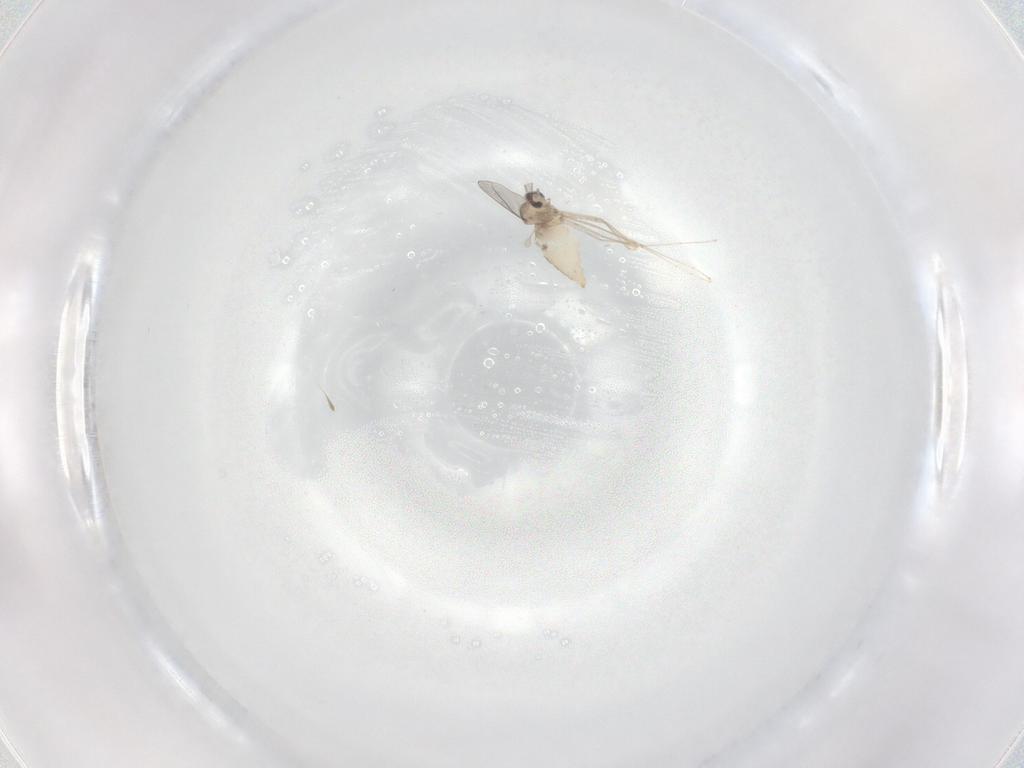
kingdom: Animalia
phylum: Arthropoda
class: Insecta
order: Diptera
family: Cecidomyiidae
